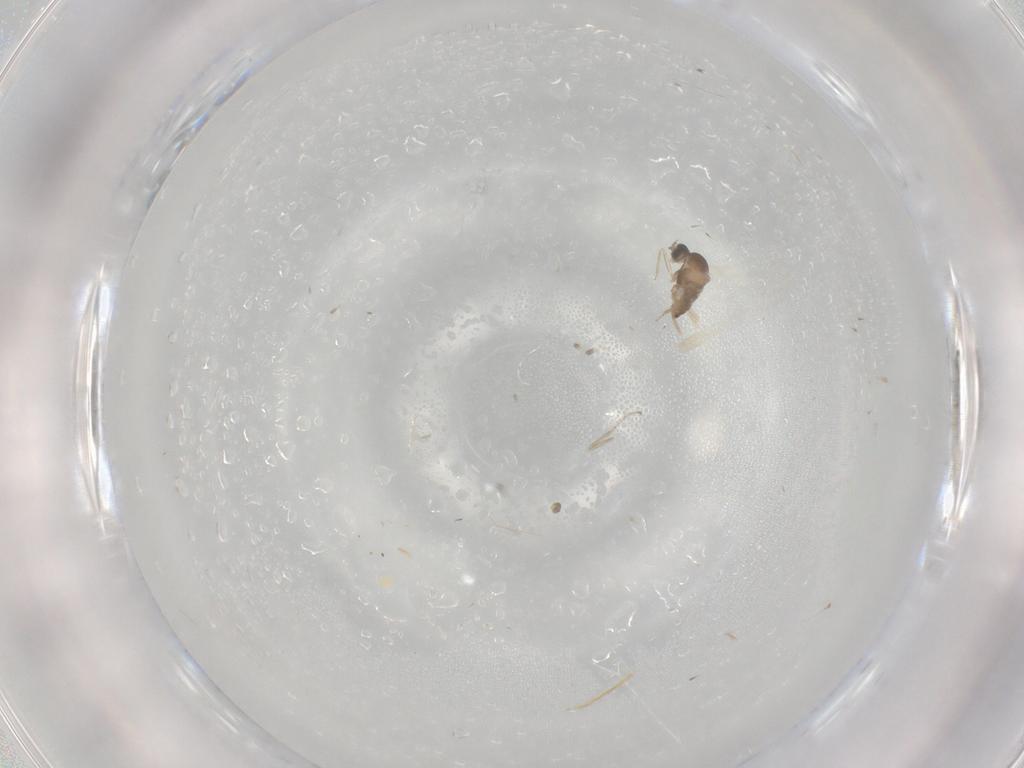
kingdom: Animalia
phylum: Arthropoda
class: Insecta
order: Diptera
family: Cecidomyiidae
